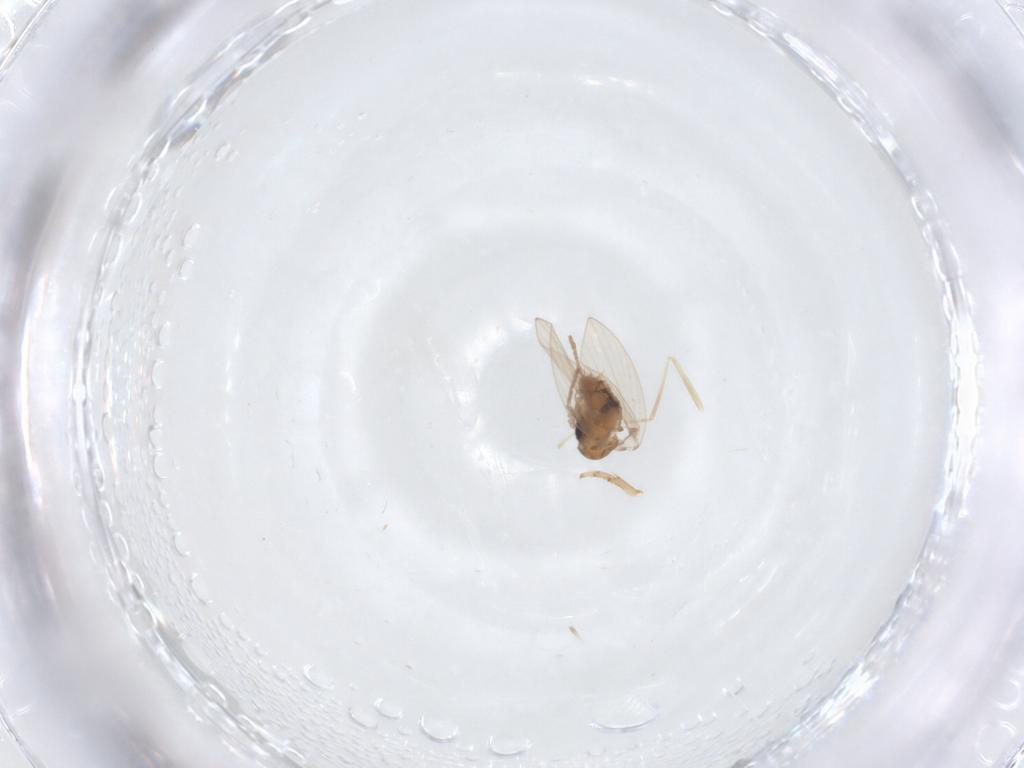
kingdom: Animalia
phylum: Arthropoda
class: Insecta
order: Diptera
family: Psychodidae
